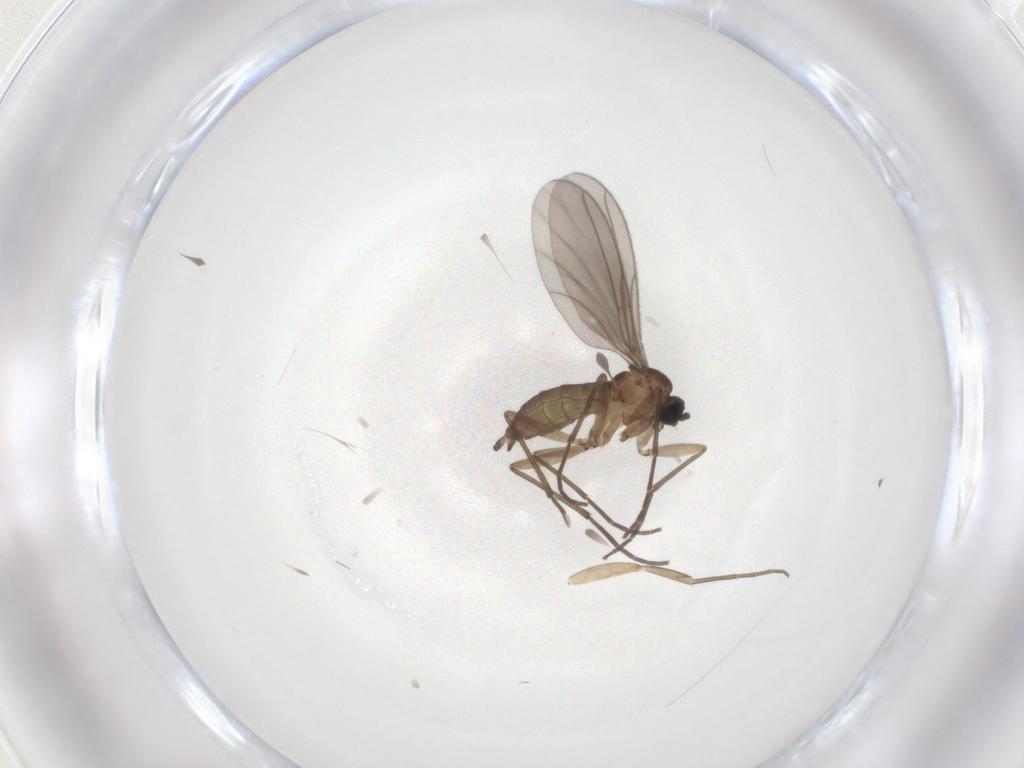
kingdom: Animalia
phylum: Arthropoda
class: Insecta
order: Diptera
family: Sciaridae
